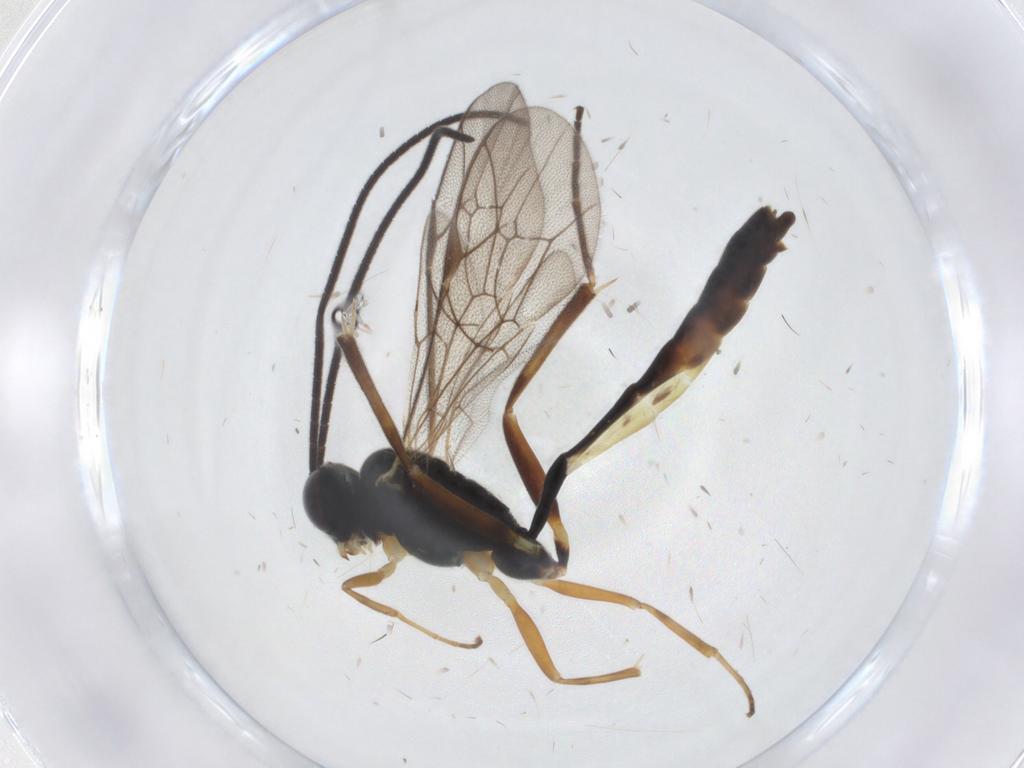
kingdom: Animalia
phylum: Arthropoda
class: Insecta
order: Hymenoptera
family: Ichneumonidae
